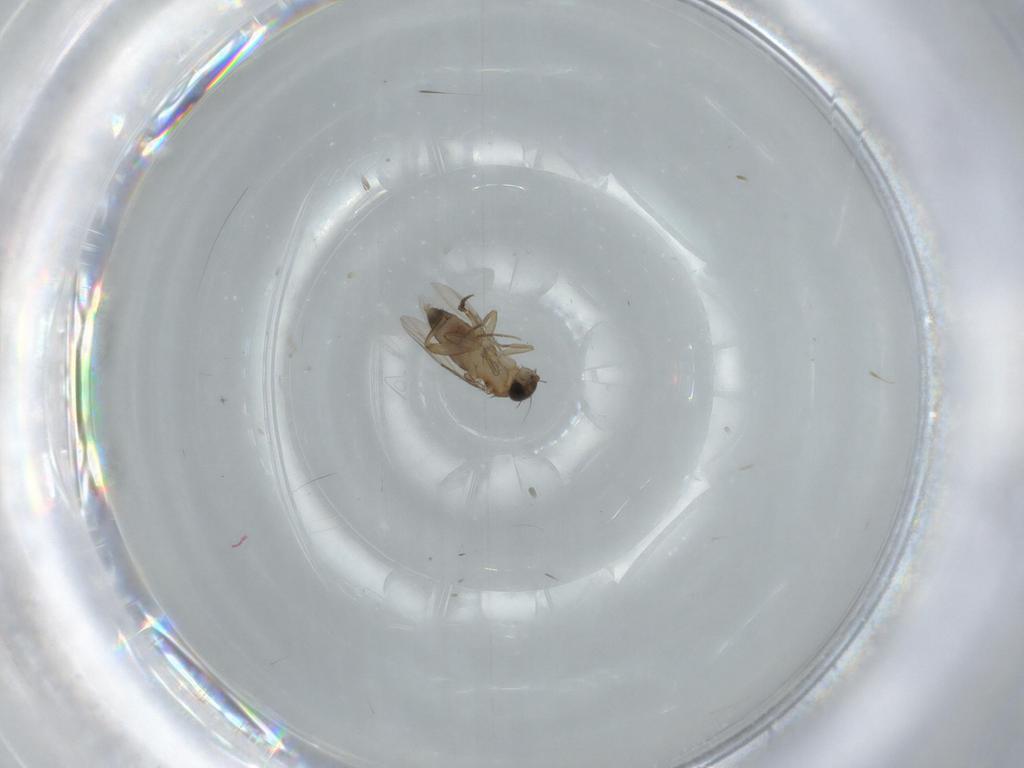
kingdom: Animalia
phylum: Arthropoda
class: Insecta
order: Diptera
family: Phoridae
